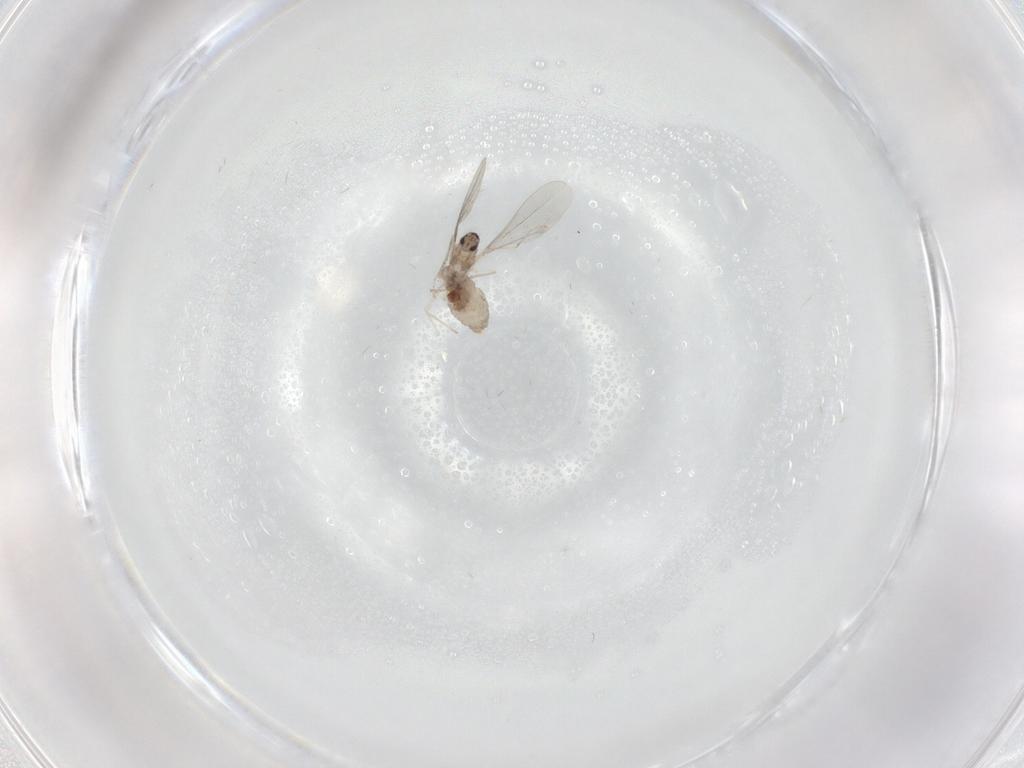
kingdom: Animalia
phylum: Arthropoda
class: Insecta
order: Diptera
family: Cecidomyiidae
